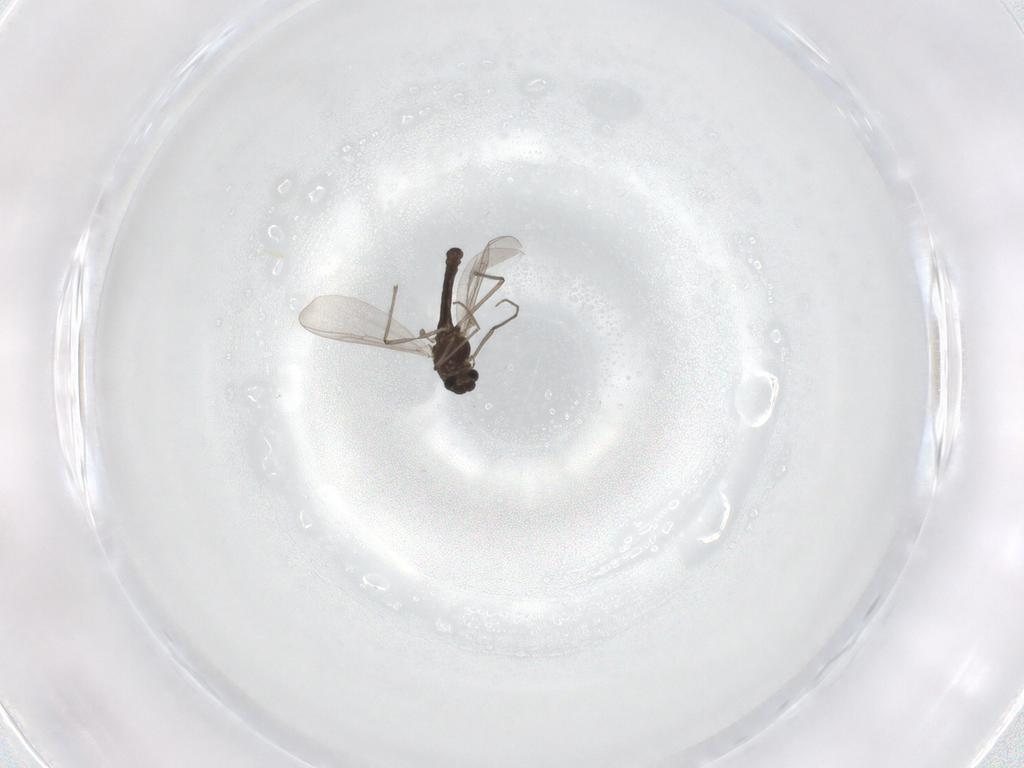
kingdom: Animalia
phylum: Arthropoda
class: Insecta
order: Diptera
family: Chironomidae
